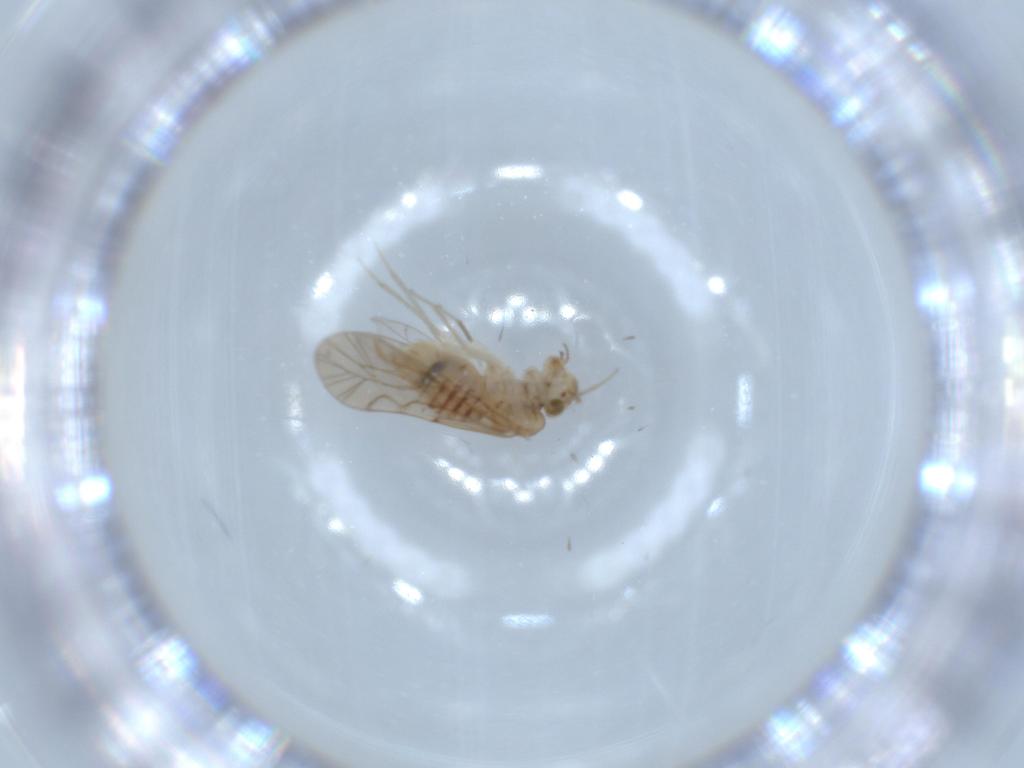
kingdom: Animalia
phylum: Arthropoda
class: Insecta
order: Psocodea
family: Lachesillidae
